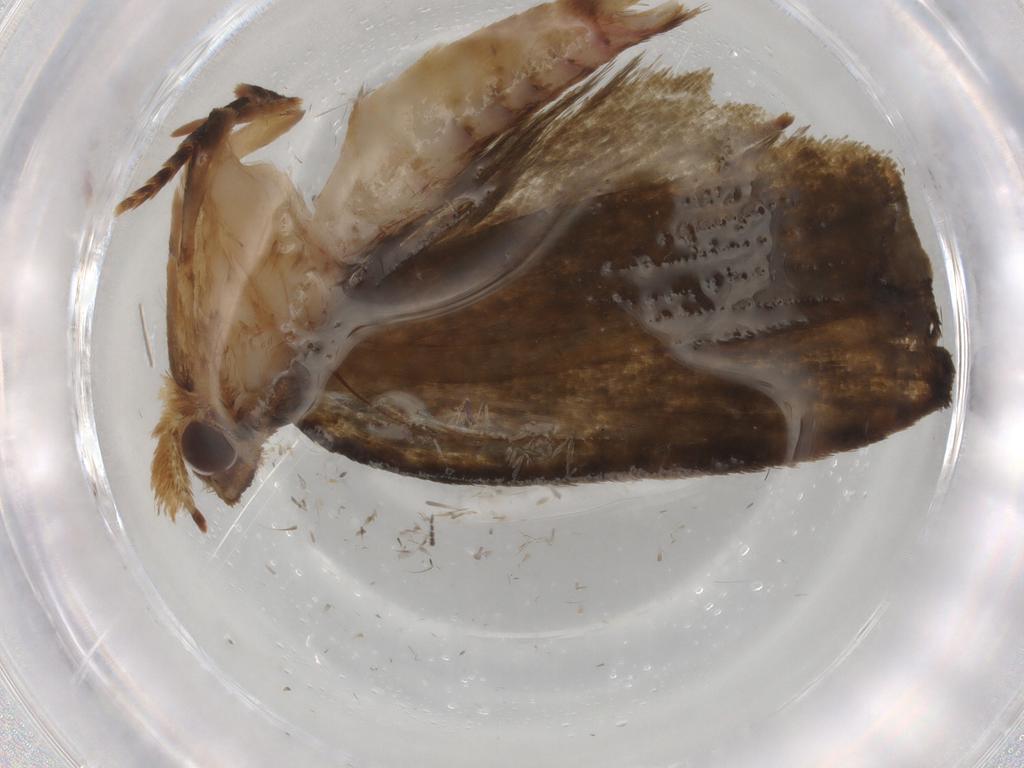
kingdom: Animalia
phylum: Arthropoda
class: Insecta
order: Lepidoptera
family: Geometridae
